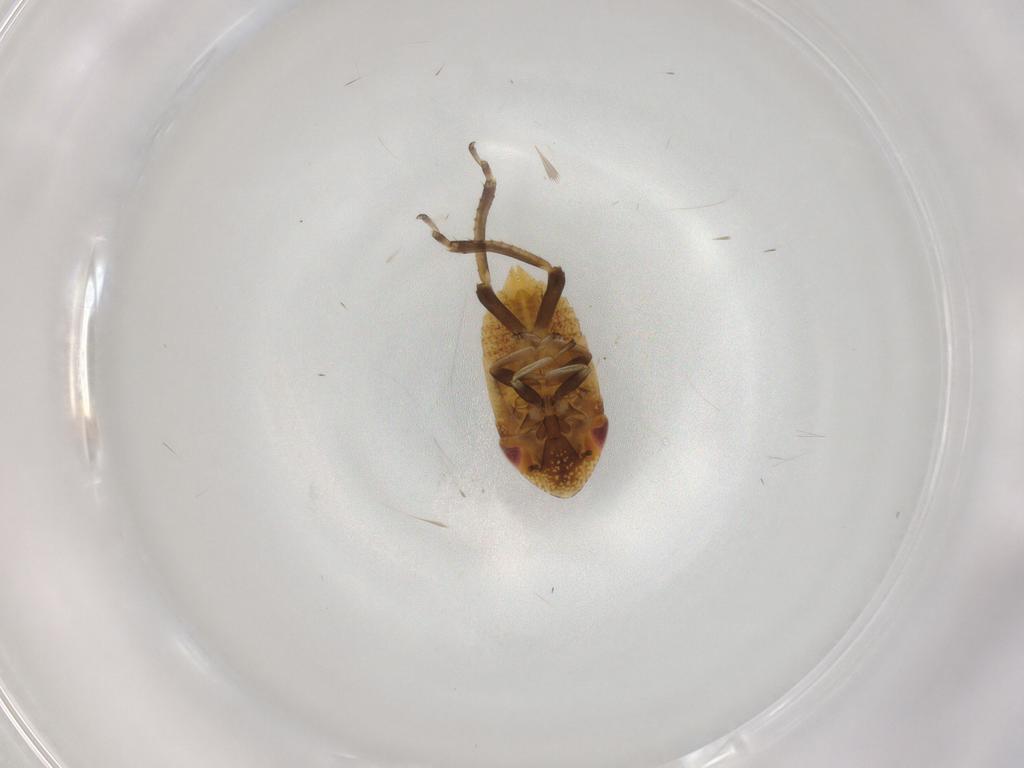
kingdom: Animalia
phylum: Arthropoda
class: Insecta
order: Hemiptera
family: Cicadellidae
